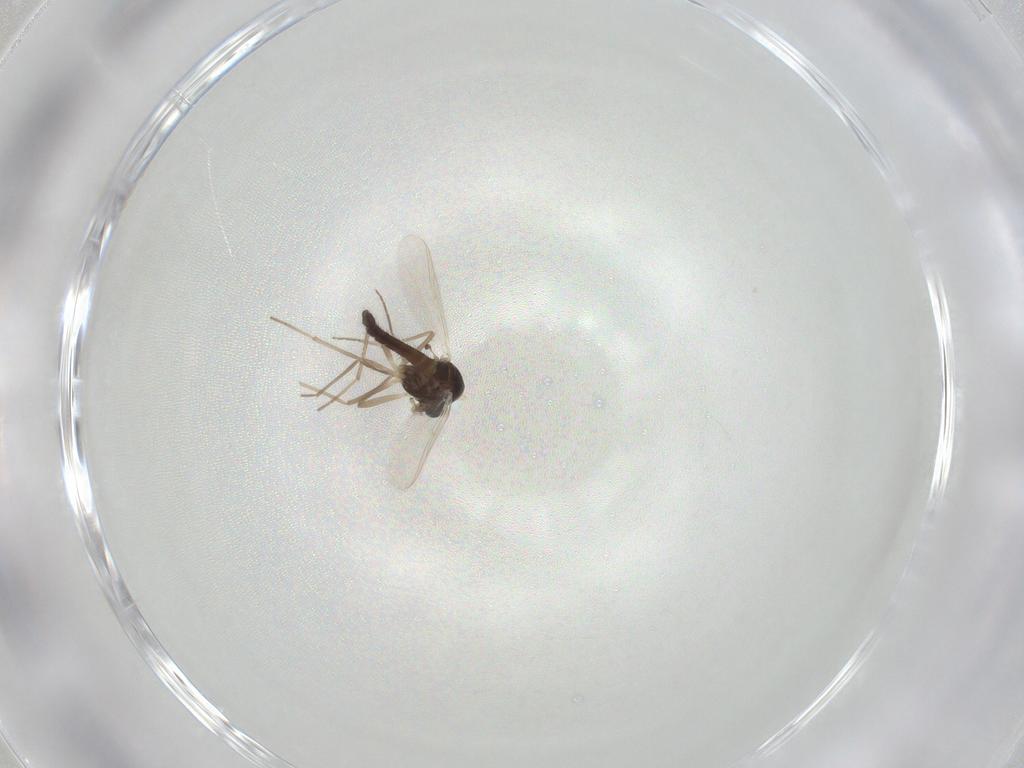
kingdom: Animalia
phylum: Arthropoda
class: Insecta
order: Diptera
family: Chironomidae
